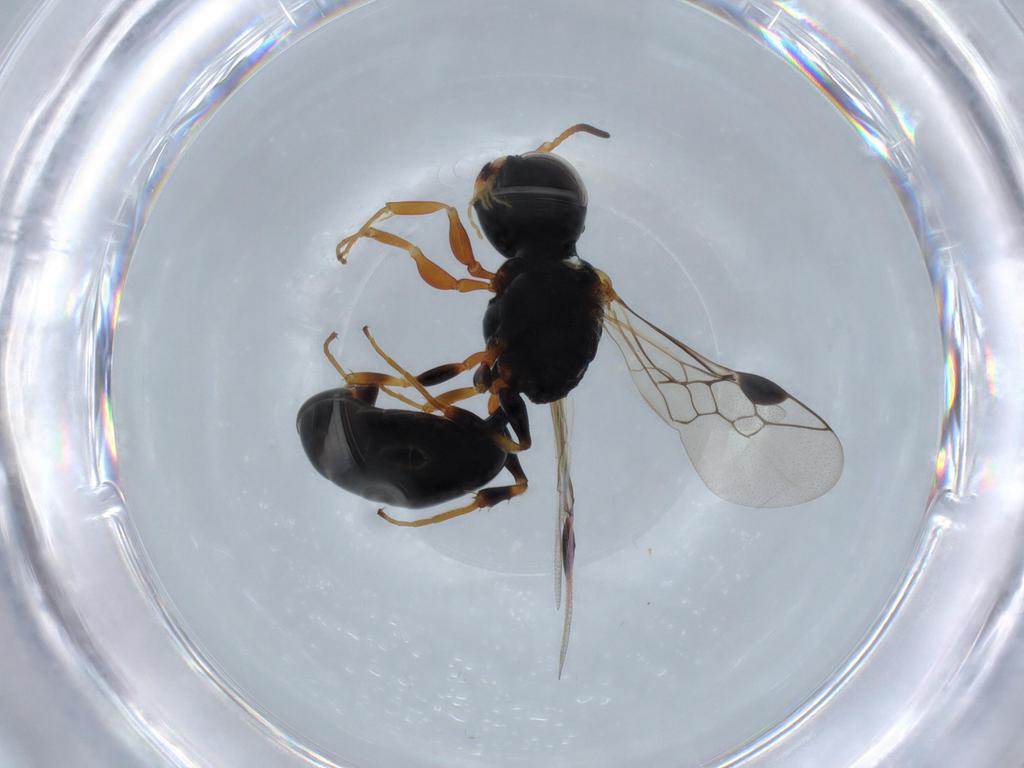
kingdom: Animalia
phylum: Arthropoda
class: Insecta
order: Hymenoptera
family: Pemphredonidae
